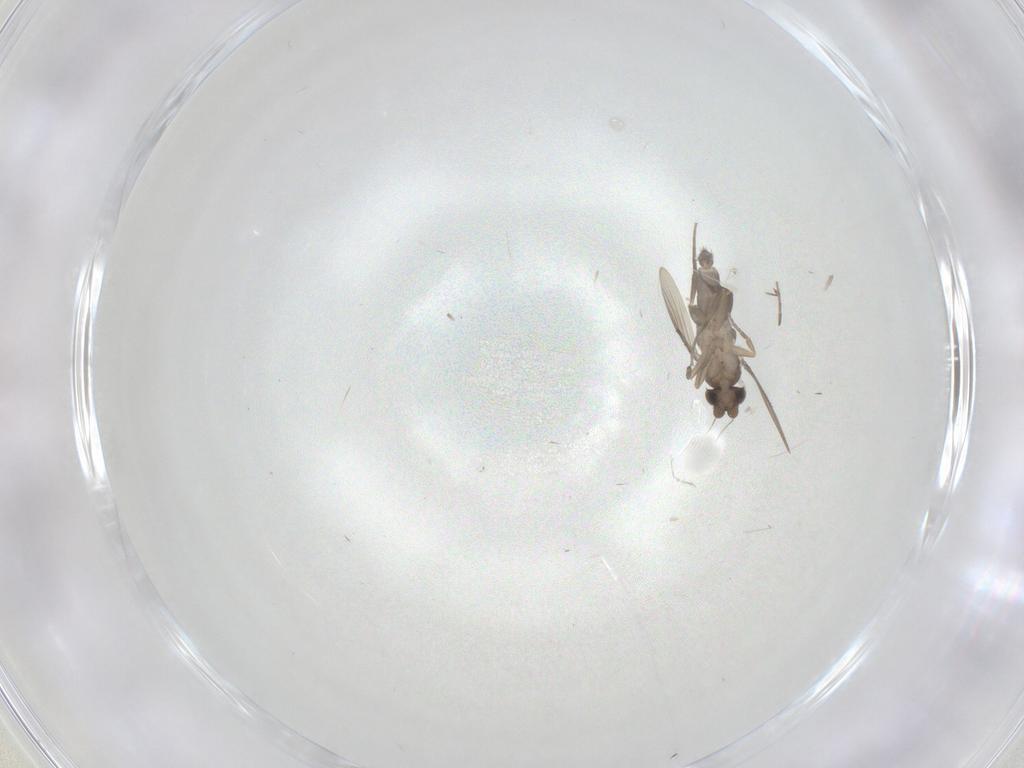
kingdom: Animalia
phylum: Arthropoda
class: Insecta
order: Diptera
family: Phoridae
